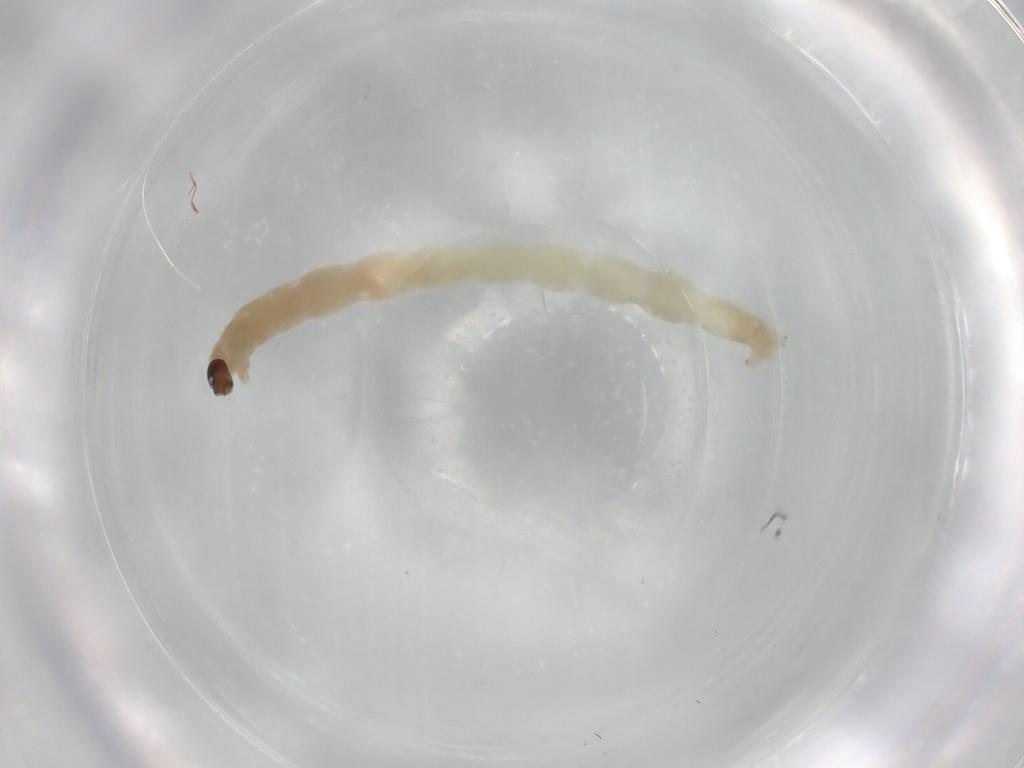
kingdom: Animalia
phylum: Arthropoda
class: Insecta
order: Diptera
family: Chironomidae
